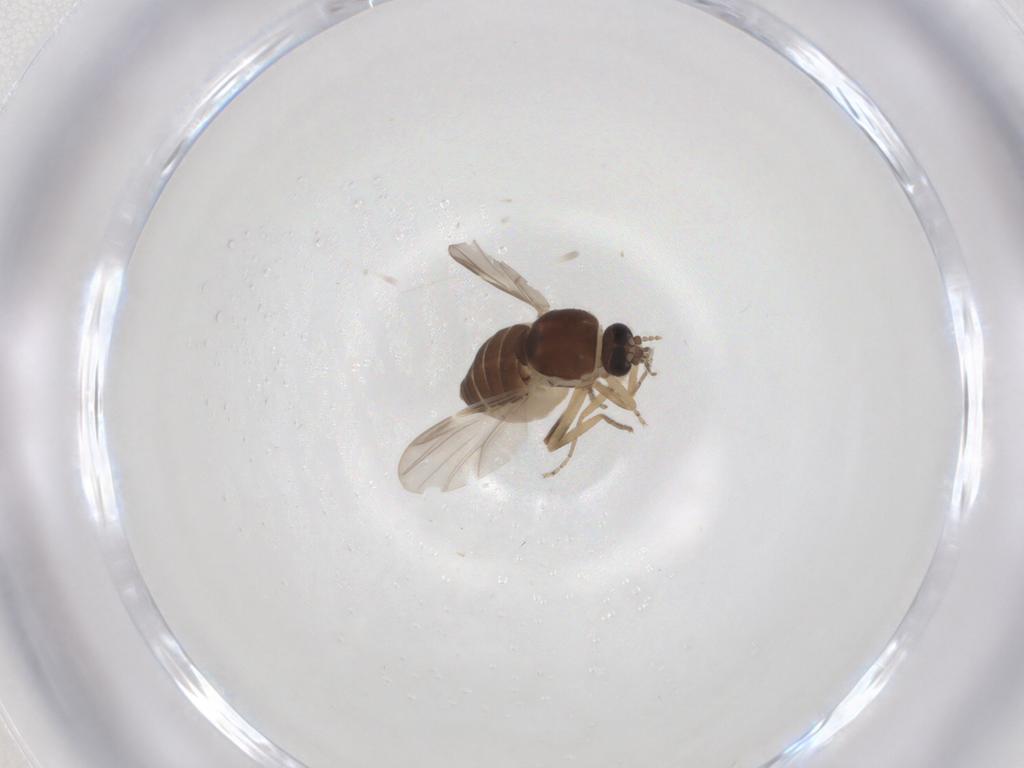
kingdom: Animalia
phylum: Arthropoda
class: Insecta
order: Diptera
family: Ceratopogonidae
